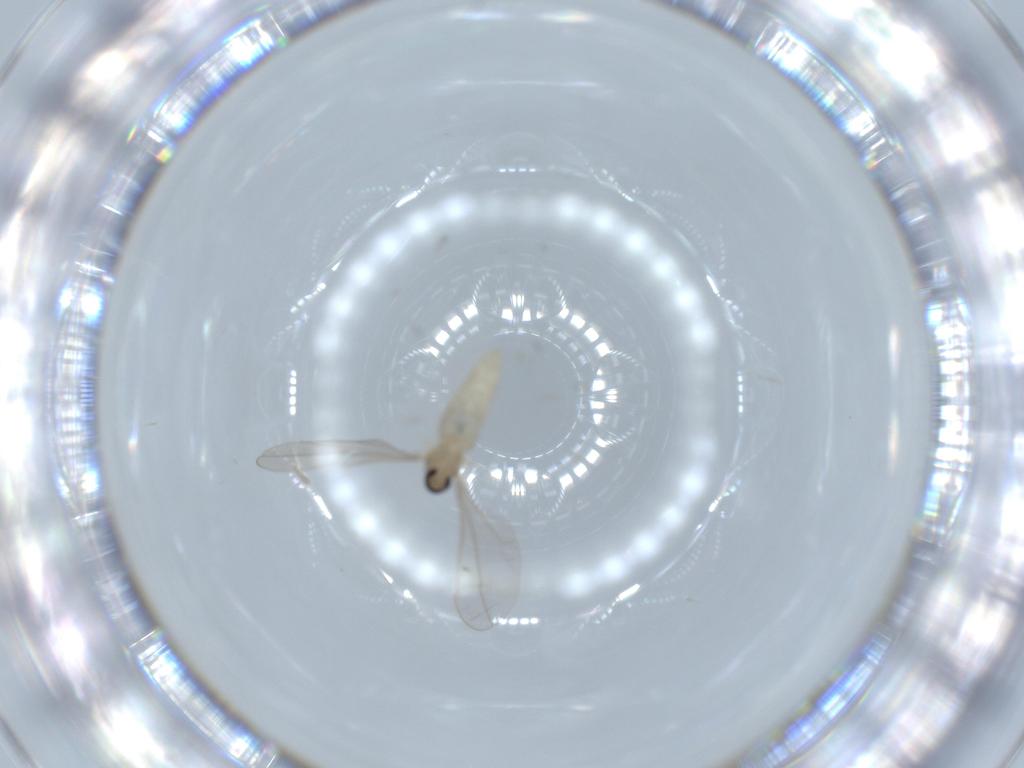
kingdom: Animalia
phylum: Arthropoda
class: Insecta
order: Diptera
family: Cecidomyiidae
